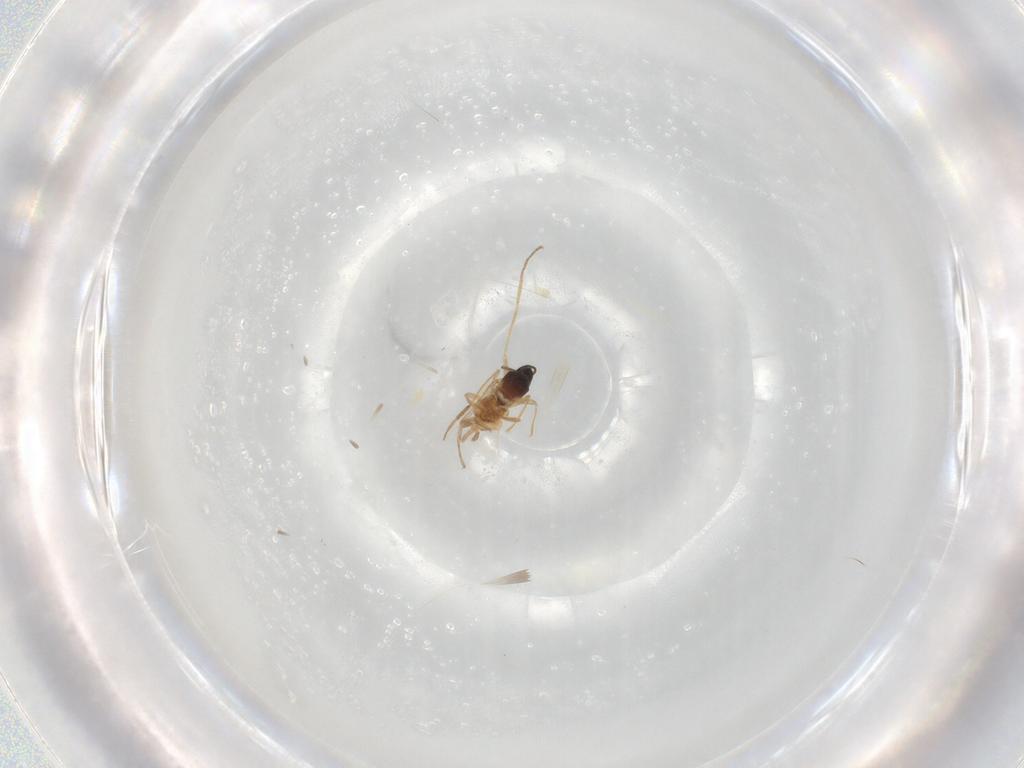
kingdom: Animalia
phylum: Arthropoda
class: Insecta
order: Diptera
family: Cecidomyiidae
